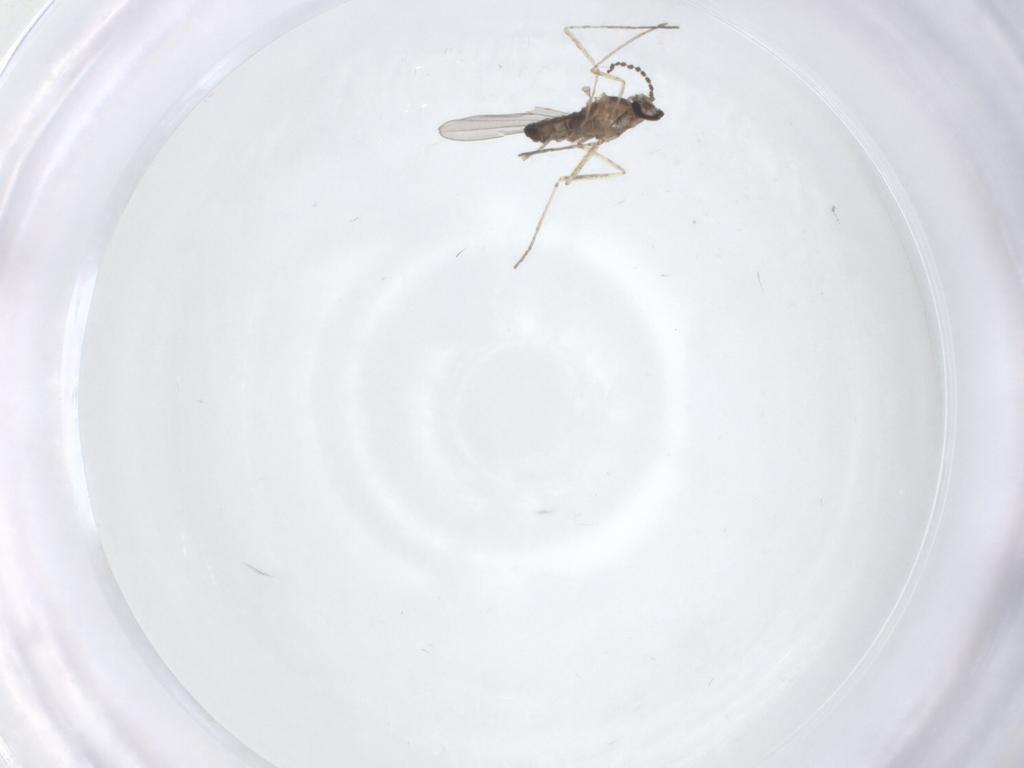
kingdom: Animalia
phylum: Arthropoda
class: Insecta
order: Diptera
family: Cecidomyiidae
